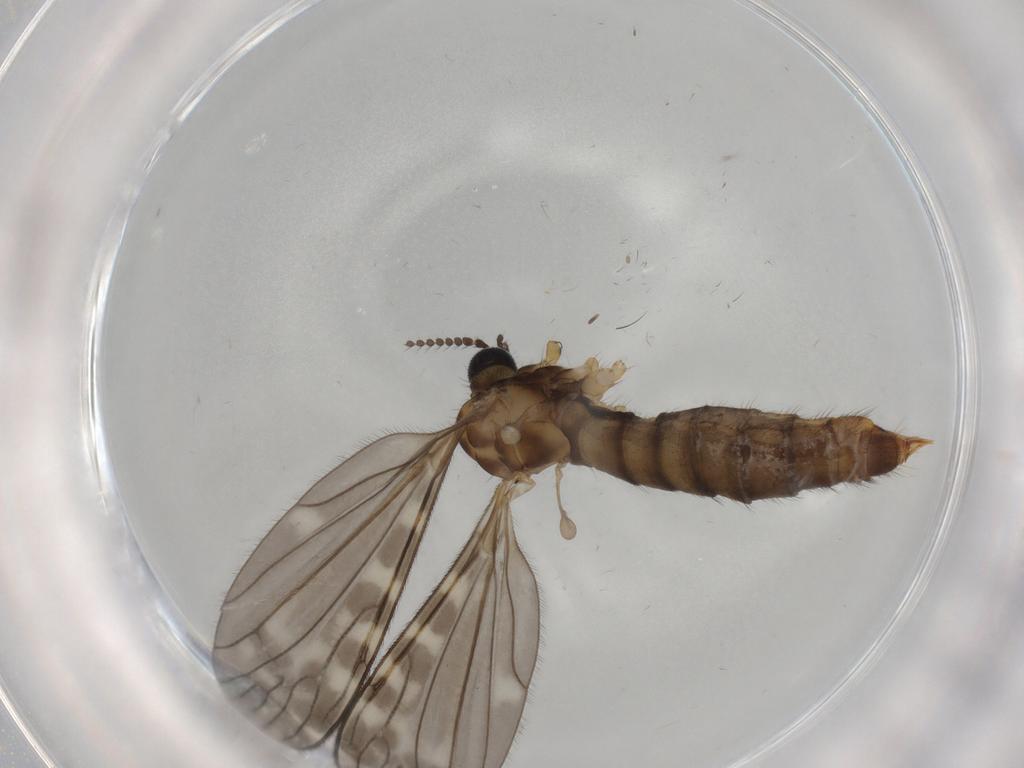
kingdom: Animalia
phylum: Arthropoda
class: Insecta
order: Diptera
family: Limoniidae
